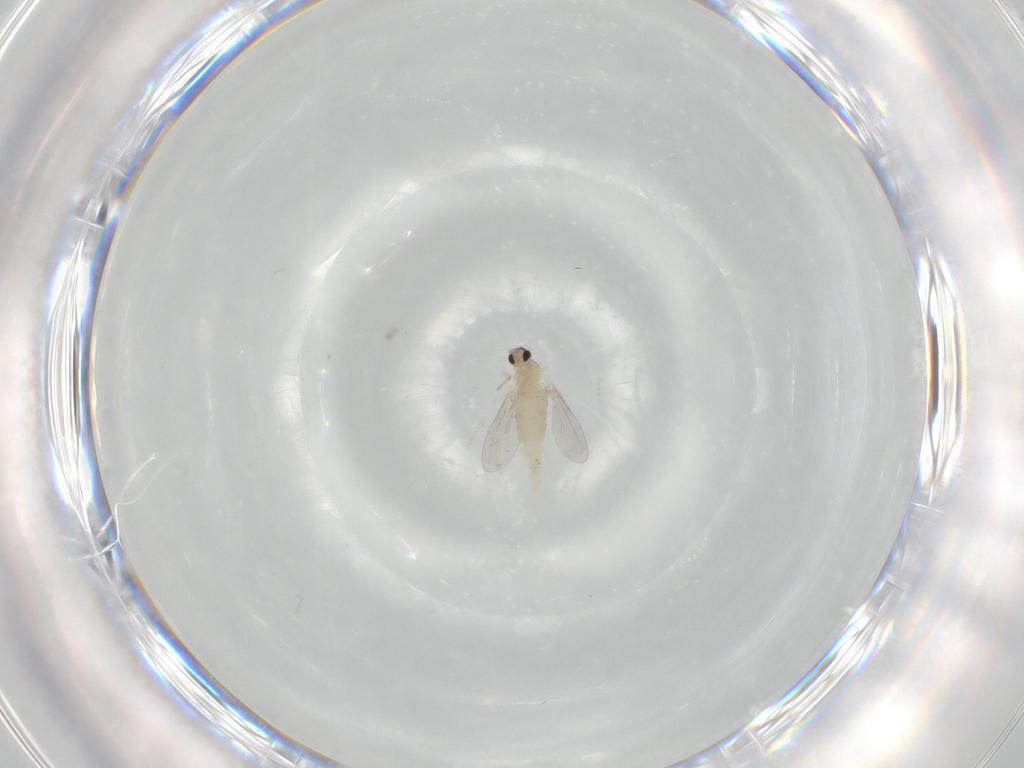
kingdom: Animalia
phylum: Arthropoda
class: Insecta
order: Diptera
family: Cecidomyiidae
